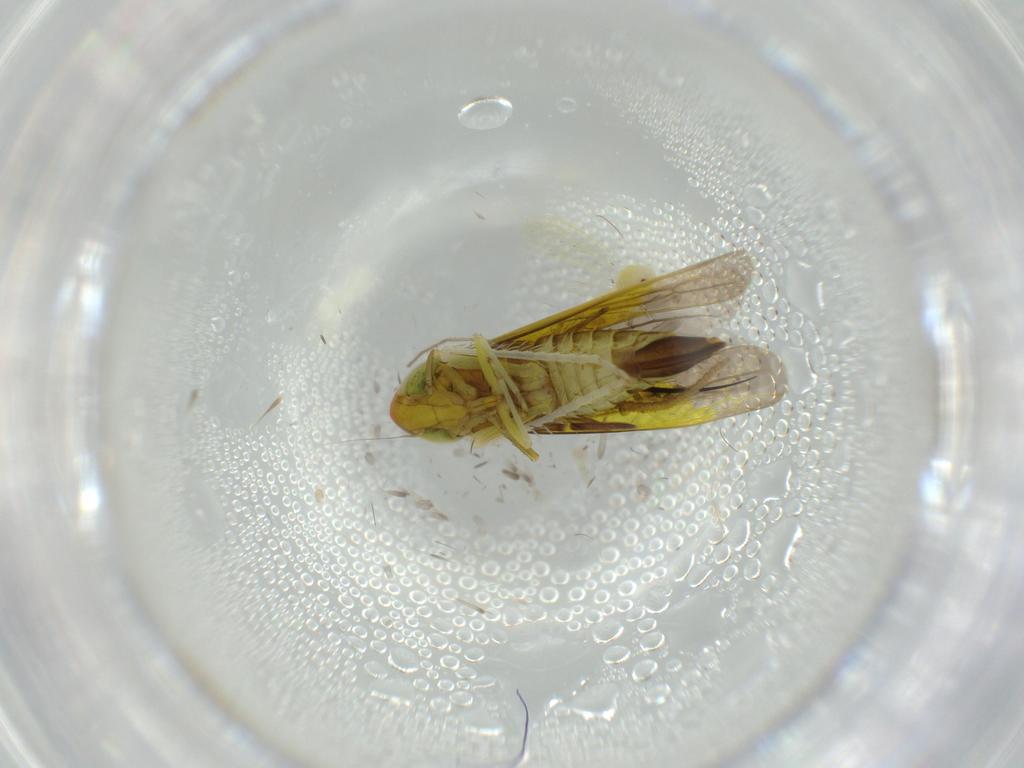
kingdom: Animalia
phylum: Arthropoda
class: Insecta
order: Hemiptera
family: Cicadellidae
